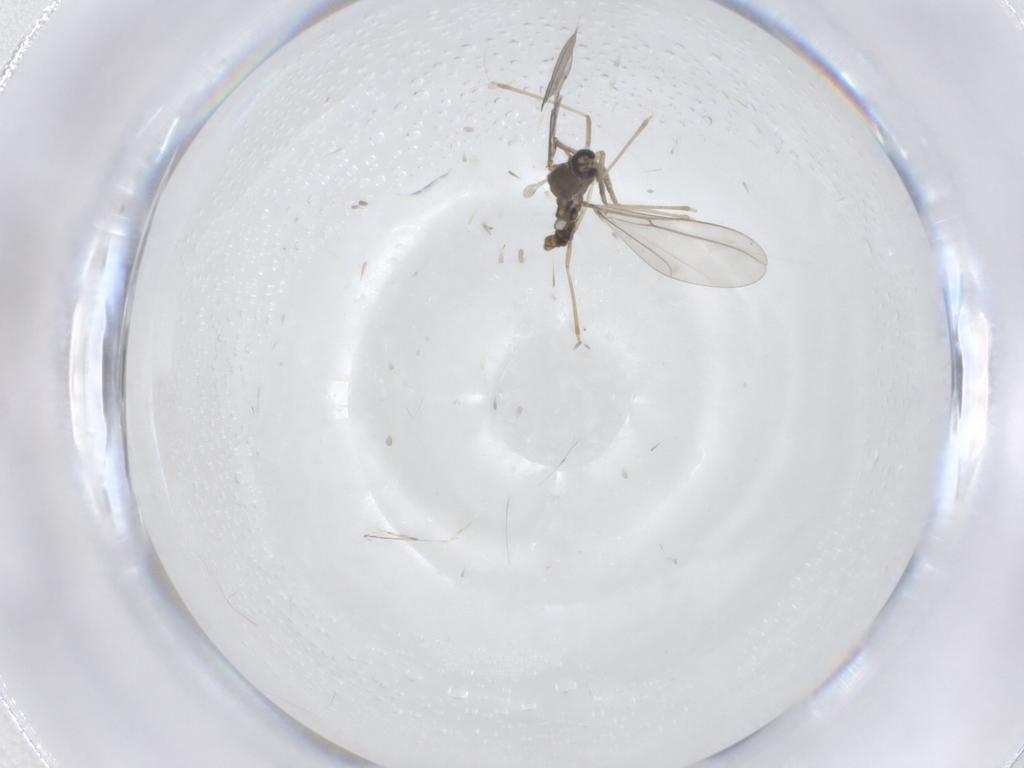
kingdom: Animalia
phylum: Arthropoda
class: Insecta
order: Diptera
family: Cecidomyiidae
